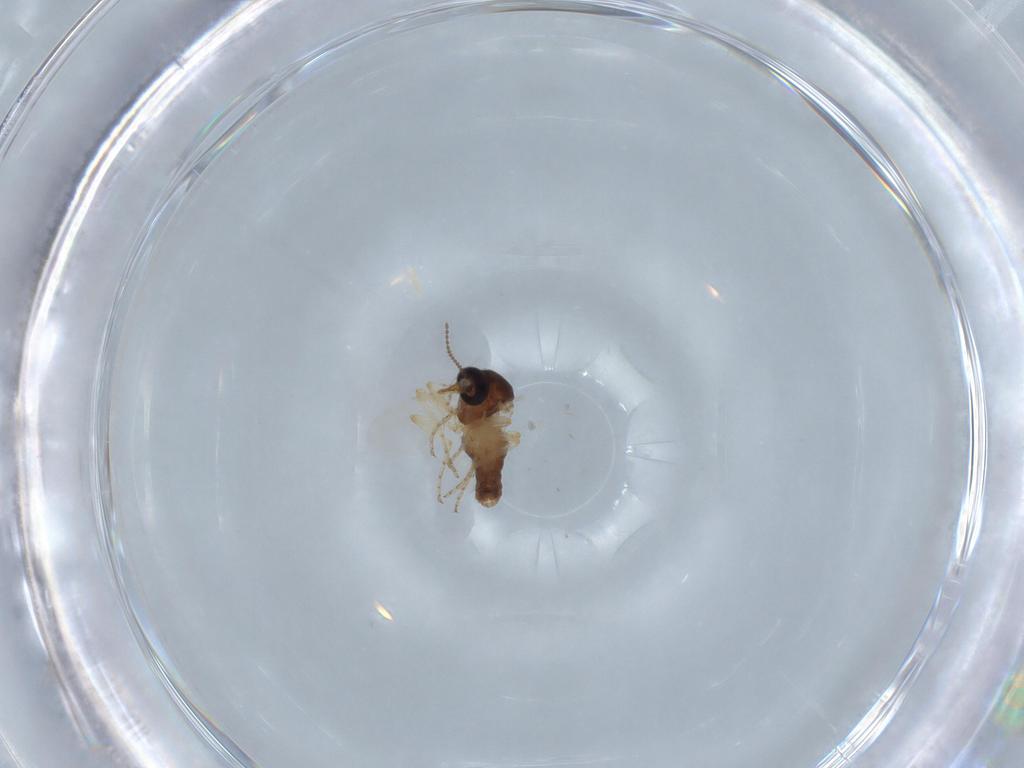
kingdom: Animalia
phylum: Arthropoda
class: Insecta
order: Diptera
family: Ceratopogonidae
